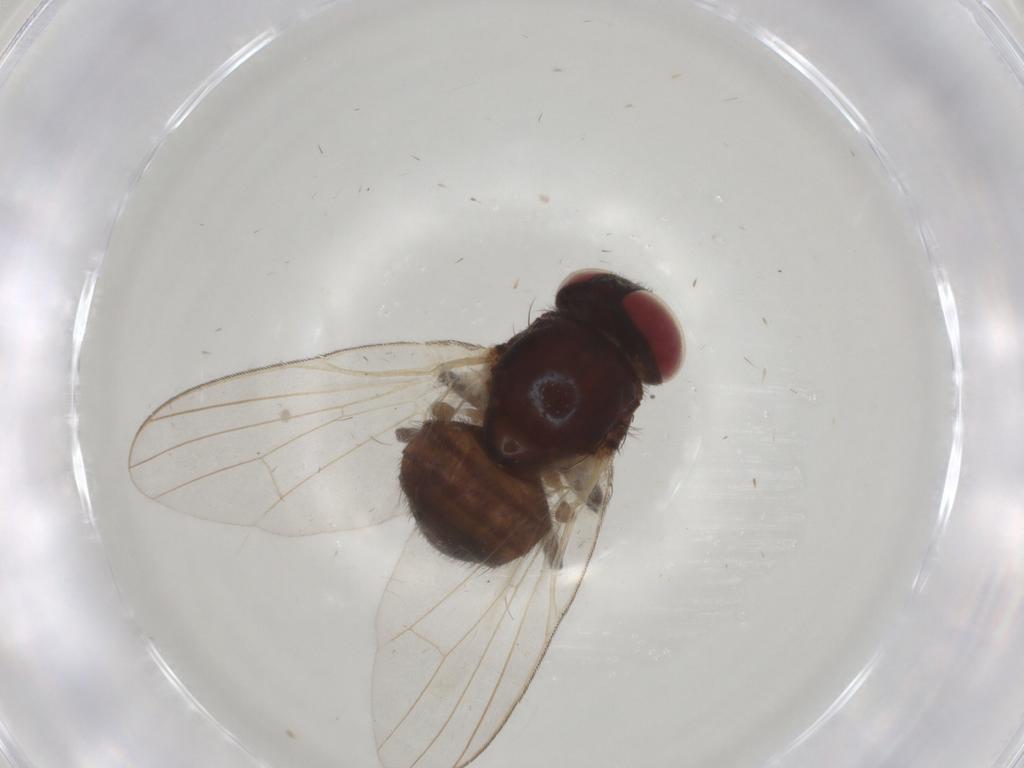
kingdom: Animalia
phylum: Arthropoda
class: Insecta
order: Diptera
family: Lonchaeidae
